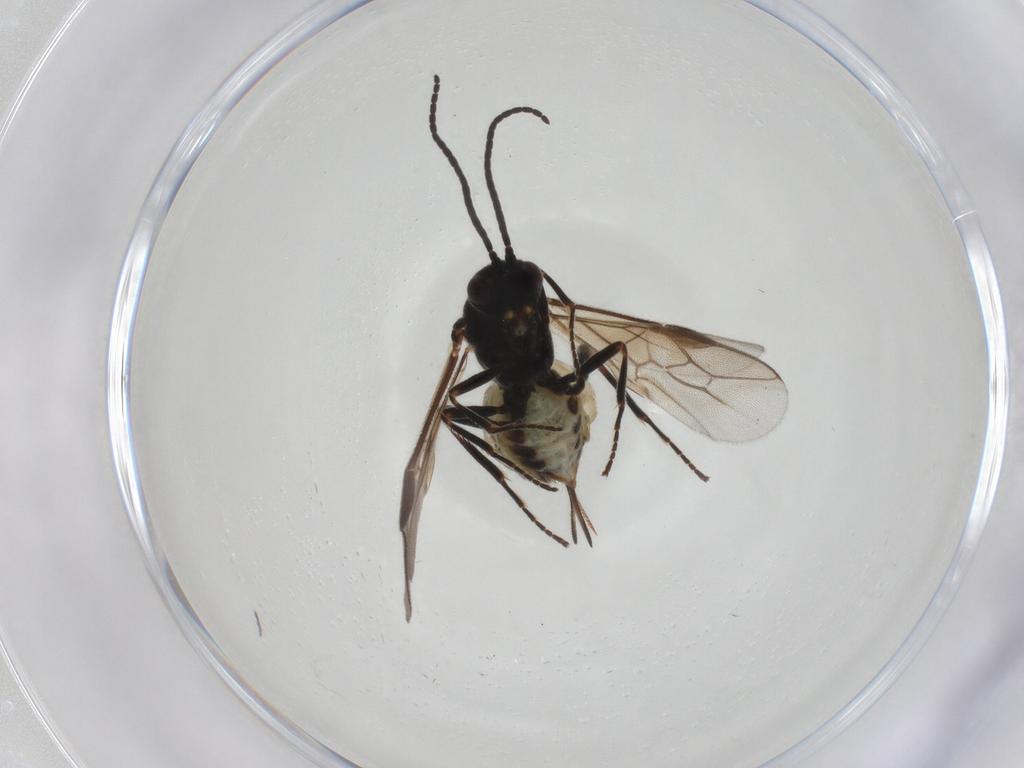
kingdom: Animalia
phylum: Arthropoda
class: Insecta
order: Hymenoptera
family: Braconidae
